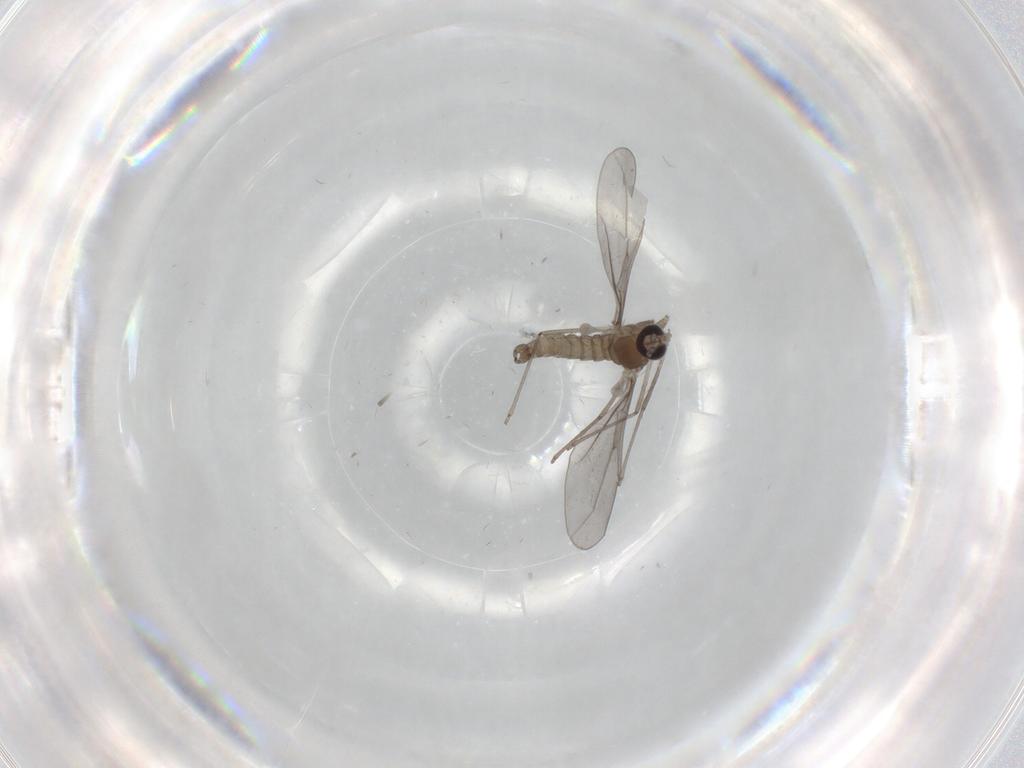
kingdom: Animalia
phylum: Arthropoda
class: Insecta
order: Diptera
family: Cecidomyiidae
